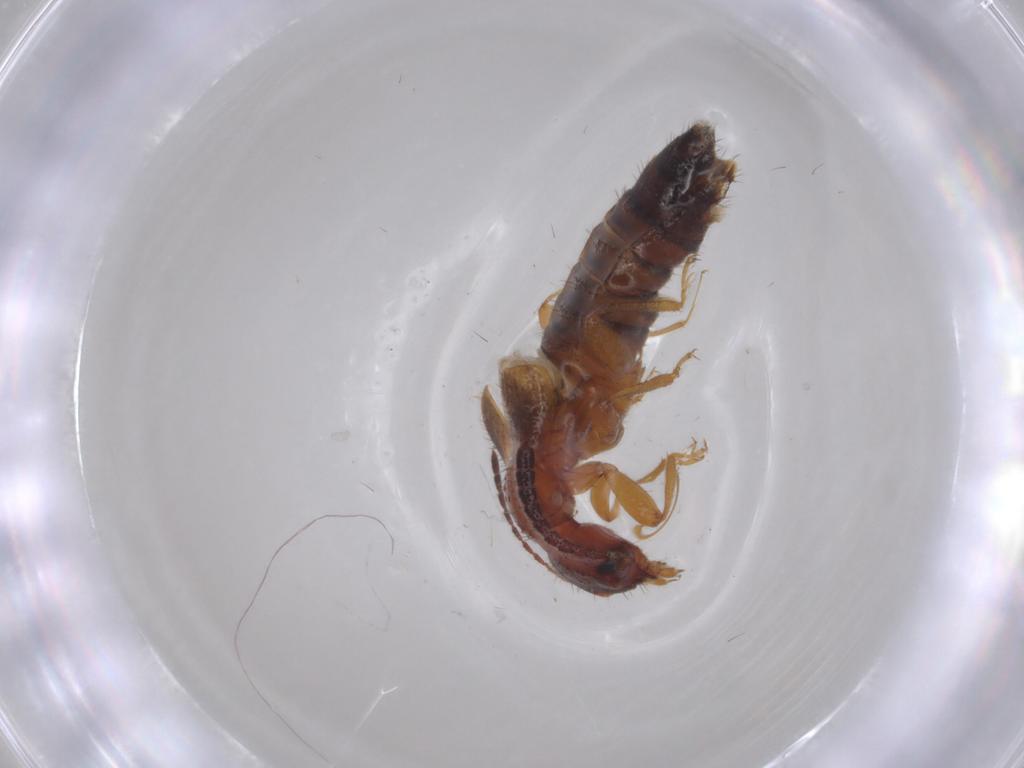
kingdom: Animalia
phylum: Arthropoda
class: Insecta
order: Coleoptera
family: Staphylinidae
